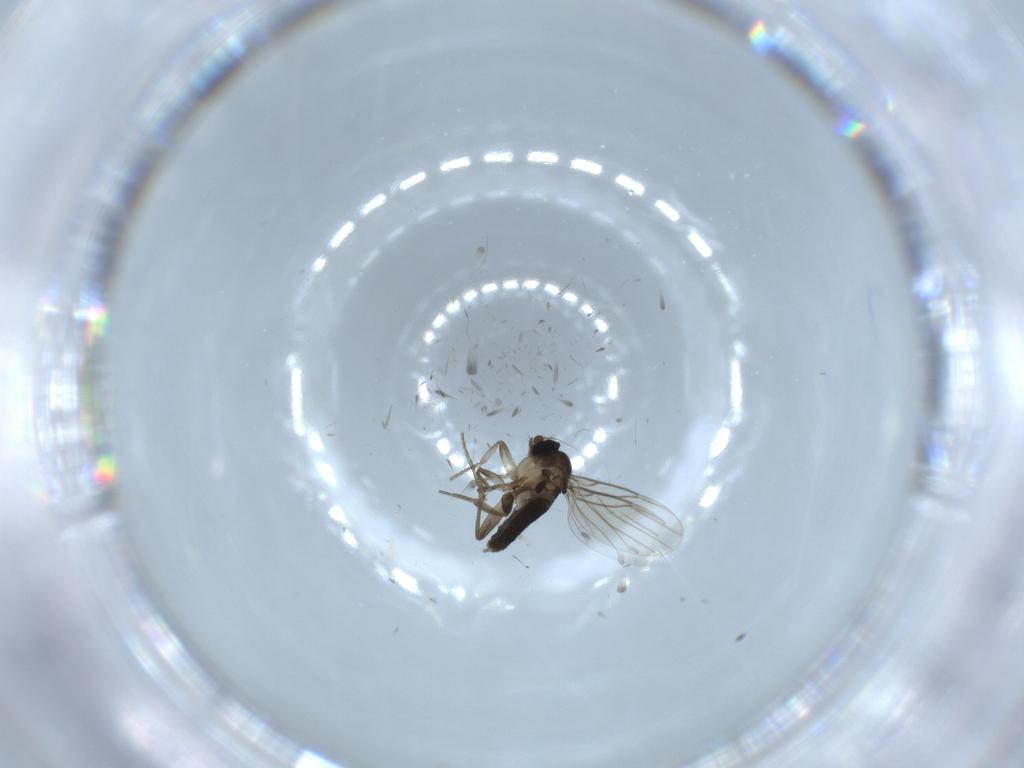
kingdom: Animalia
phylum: Arthropoda
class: Insecta
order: Diptera
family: Phoridae
